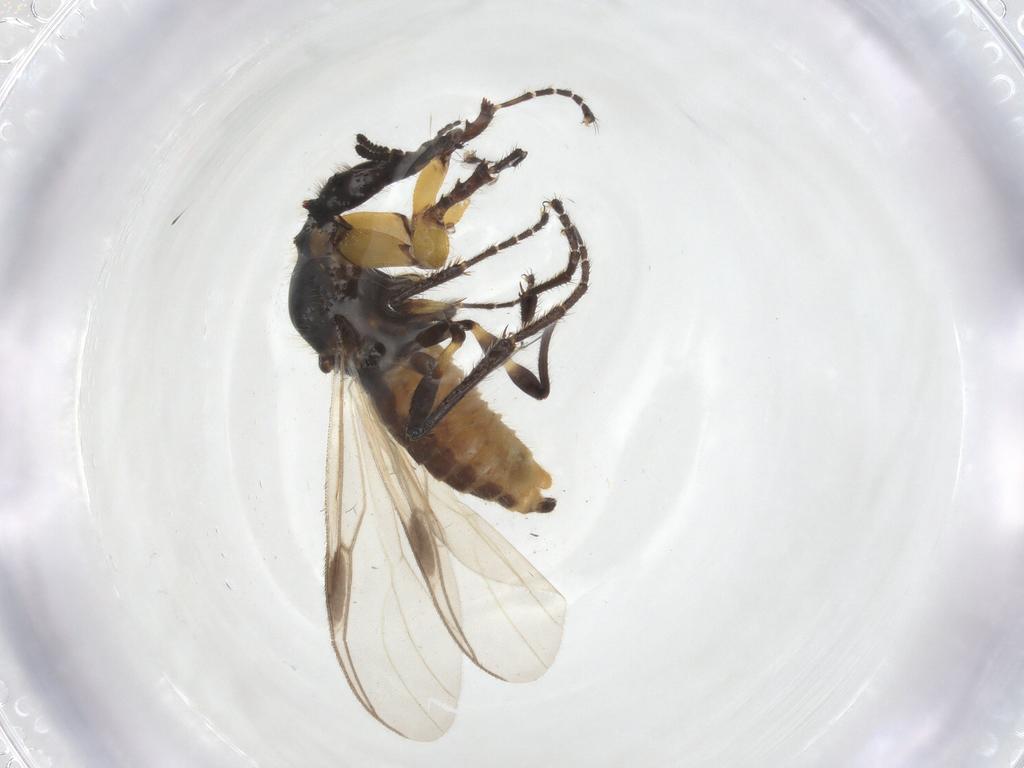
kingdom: Animalia
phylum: Arthropoda
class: Insecta
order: Diptera
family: Bibionidae
